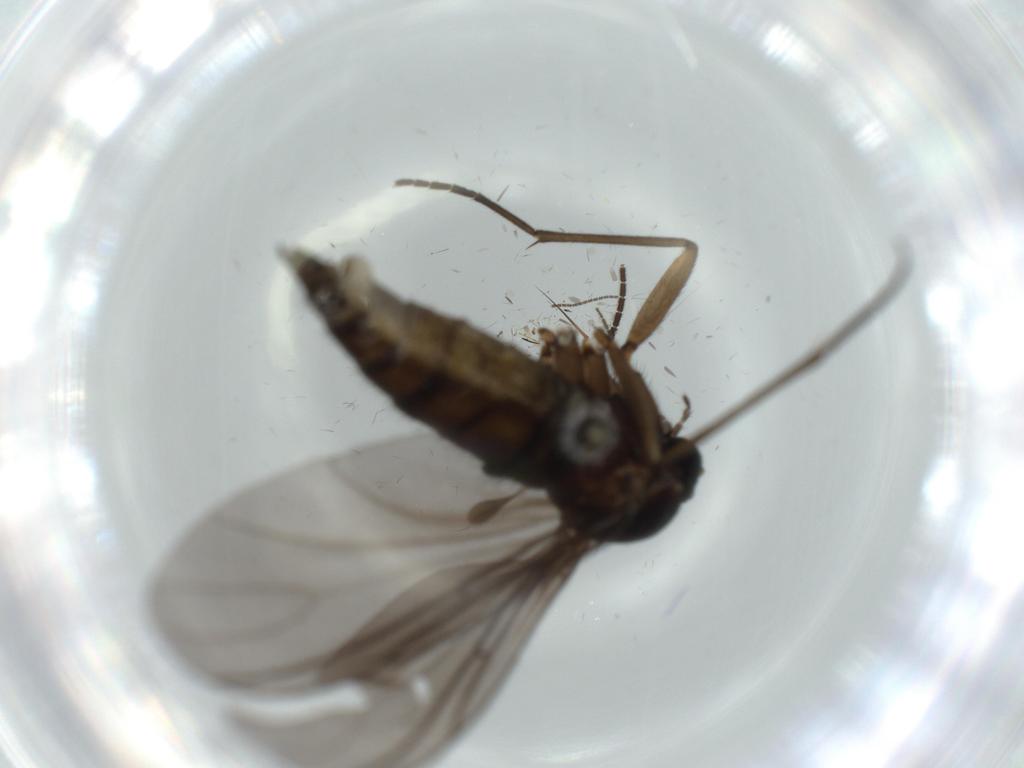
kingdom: Animalia
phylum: Arthropoda
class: Insecta
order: Diptera
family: Sciaridae
